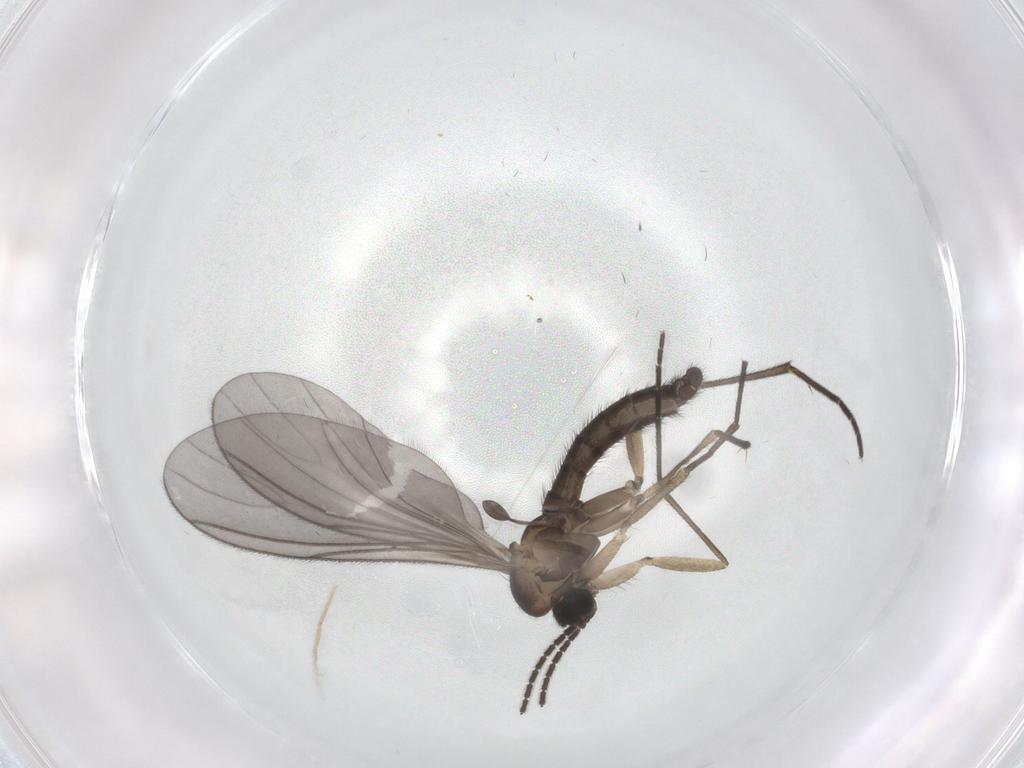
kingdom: Animalia
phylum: Arthropoda
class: Insecta
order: Diptera
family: Sciaridae
